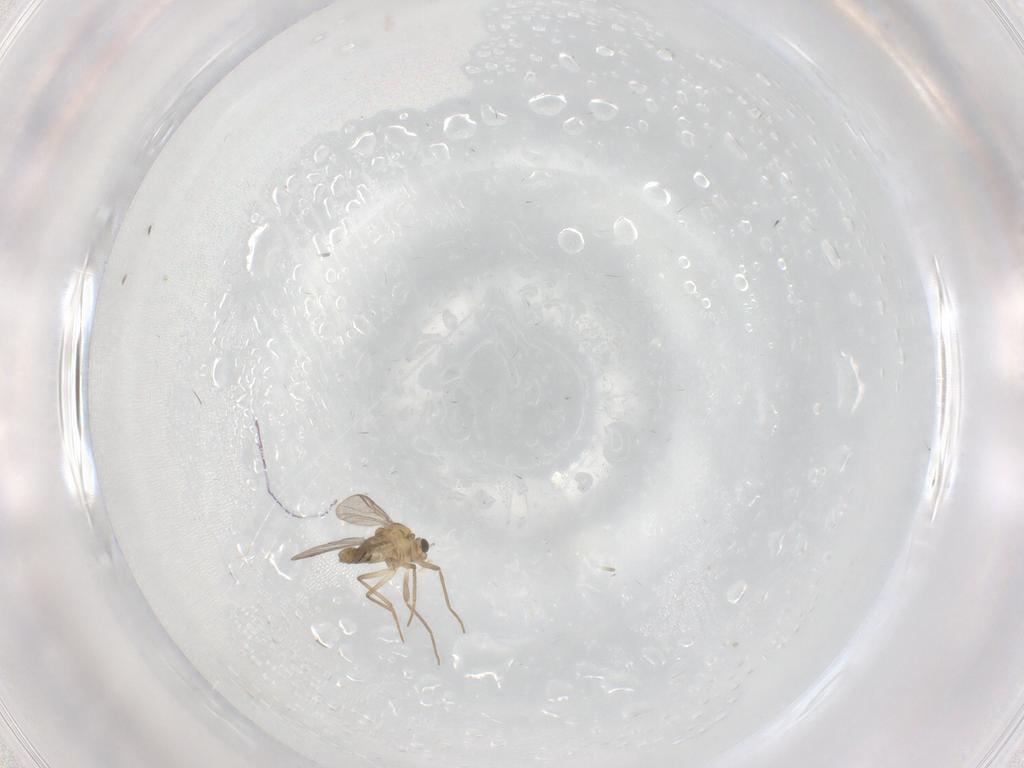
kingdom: Animalia
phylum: Arthropoda
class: Insecta
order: Diptera
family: Chironomidae
